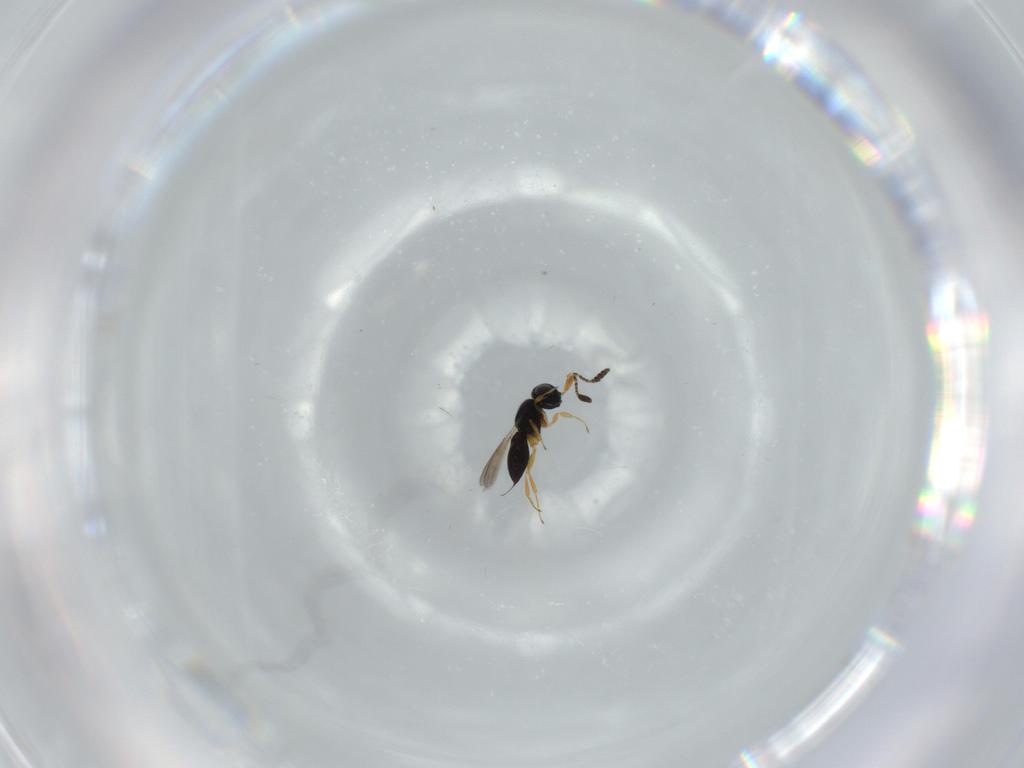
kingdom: Animalia
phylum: Arthropoda
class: Insecta
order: Hymenoptera
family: Scelionidae
